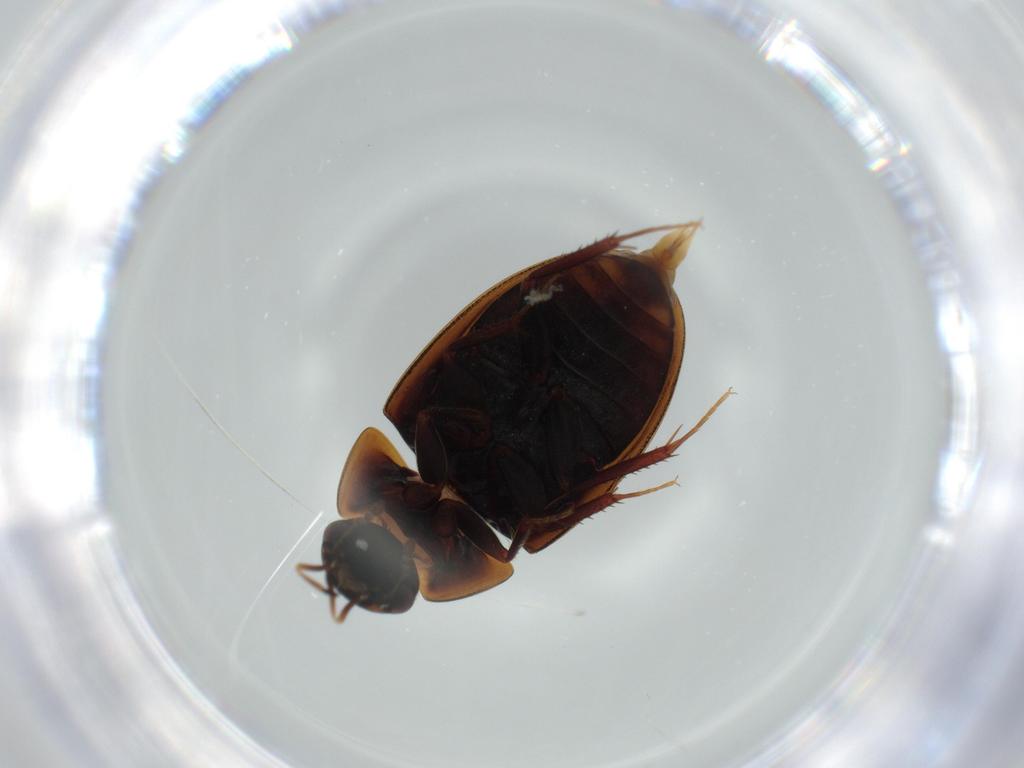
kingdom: Animalia
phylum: Arthropoda
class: Insecta
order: Coleoptera
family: Hydrophilidae
